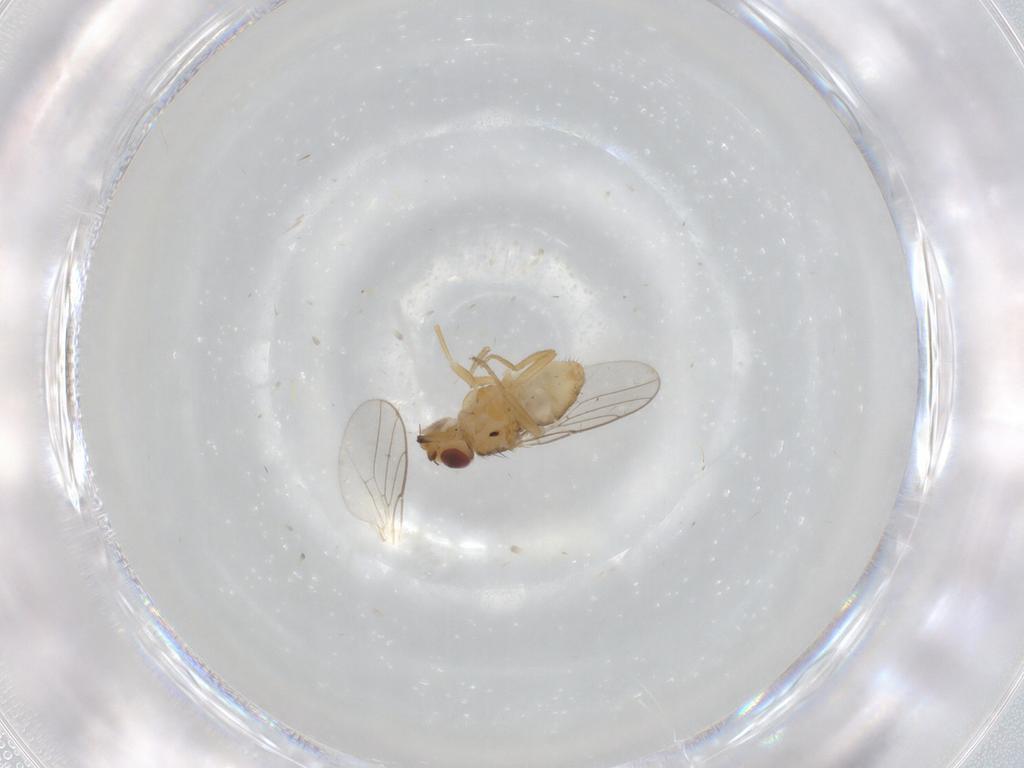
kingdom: Animalia
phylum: Arthropoda
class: Insecta
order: Diptera
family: Chloropidae
